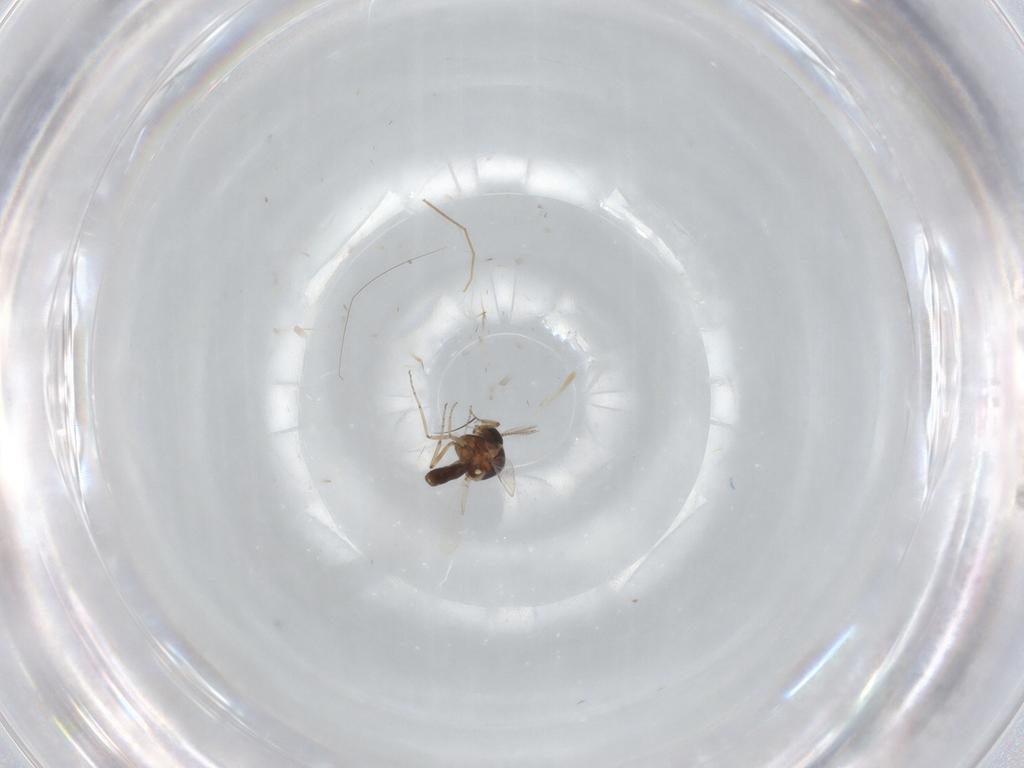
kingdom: Animalia
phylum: Arthropoda
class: Insecta
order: Diptera
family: Ceratopogonidae
